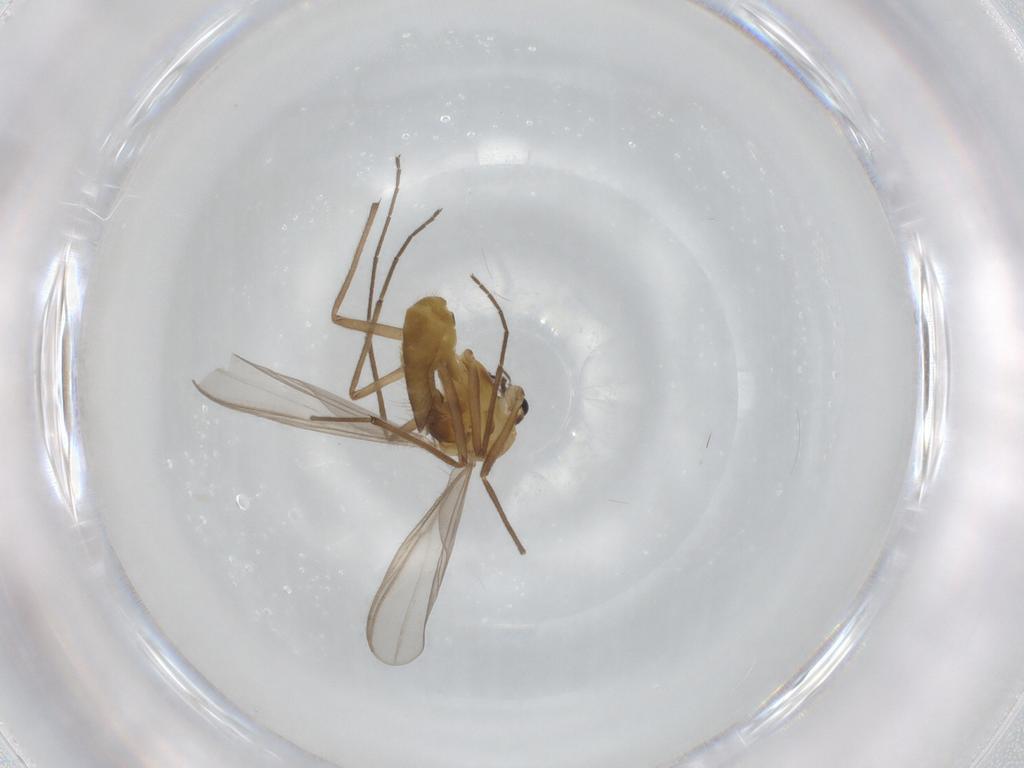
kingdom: Animalia
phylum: Arthropoda
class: Insecta
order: Diptera
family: Chironomidae
